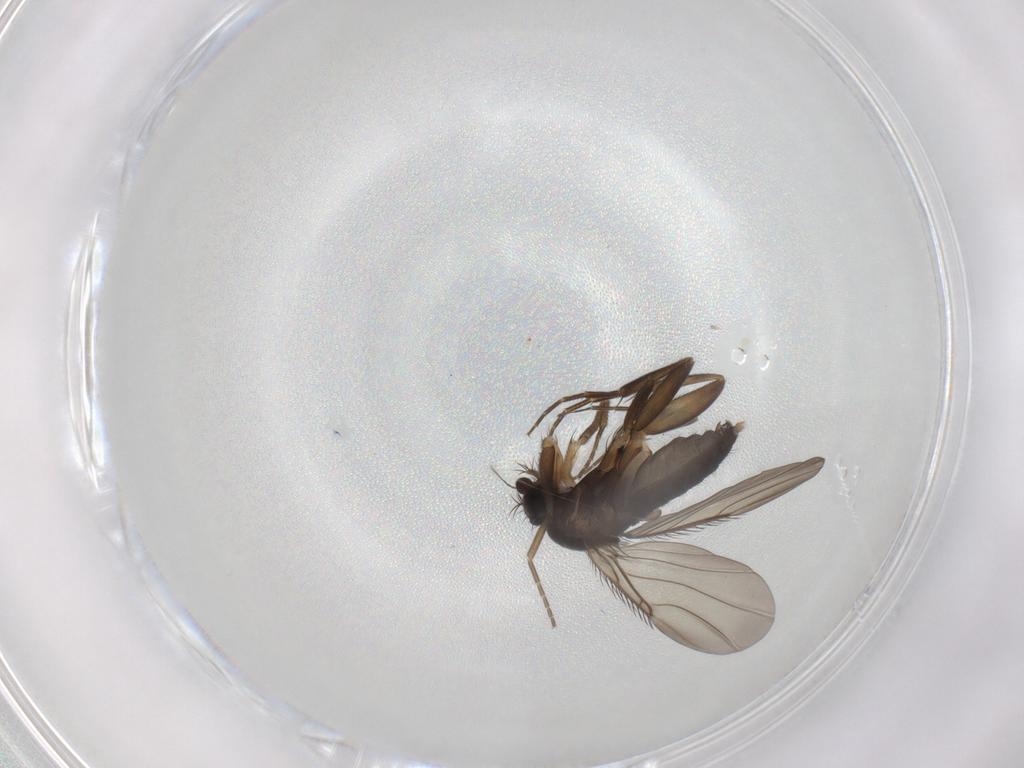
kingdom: Animalia
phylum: Arthropoda
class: Insecta
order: Diptera
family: Phoridae
